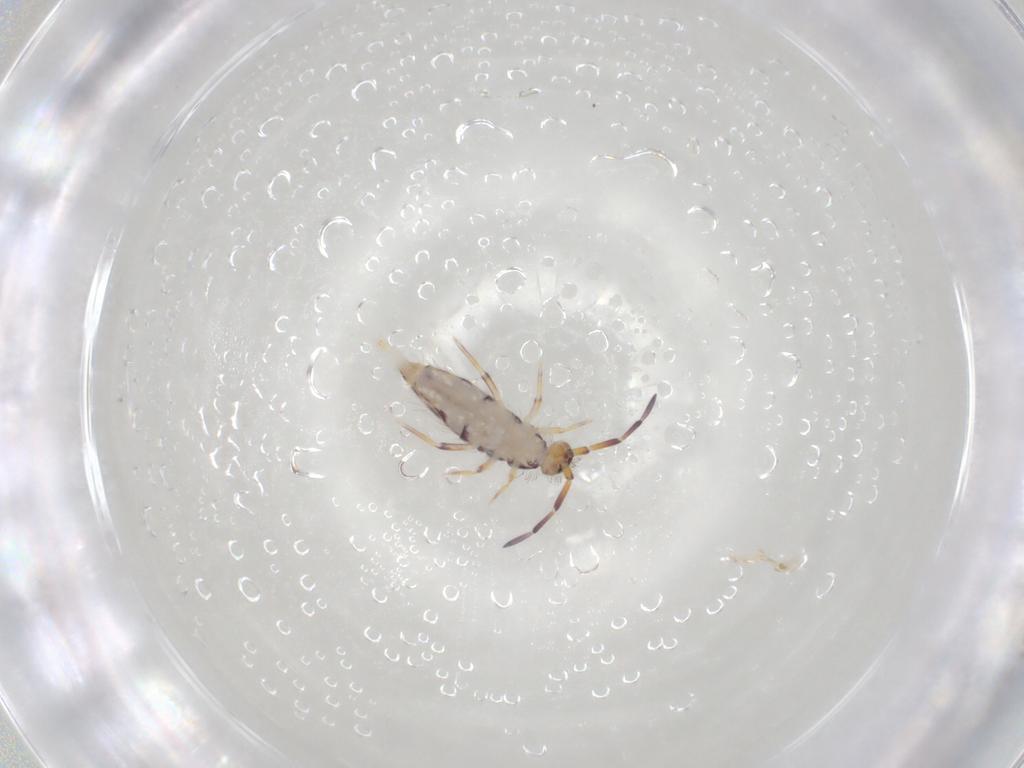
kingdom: Animalia
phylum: Arthropoda
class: Collembola
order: Entomobryomorpha
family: Entomobryidae
